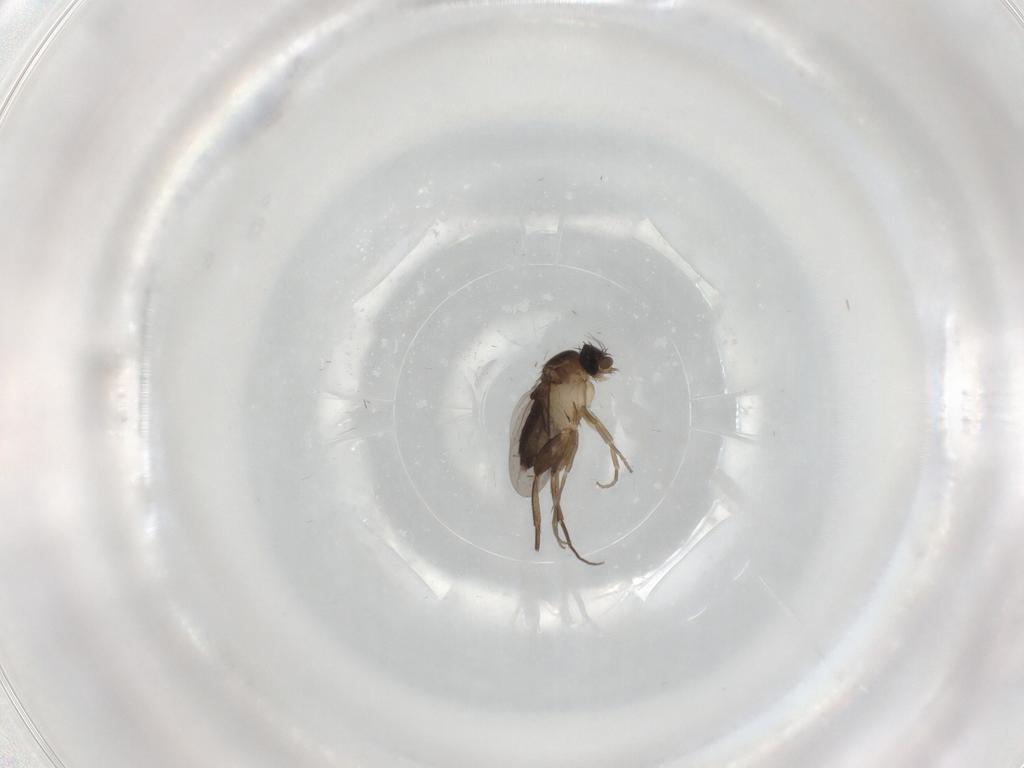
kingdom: Animalia
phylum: Arthropoda
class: Insecta
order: Diptera
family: Phoridae
